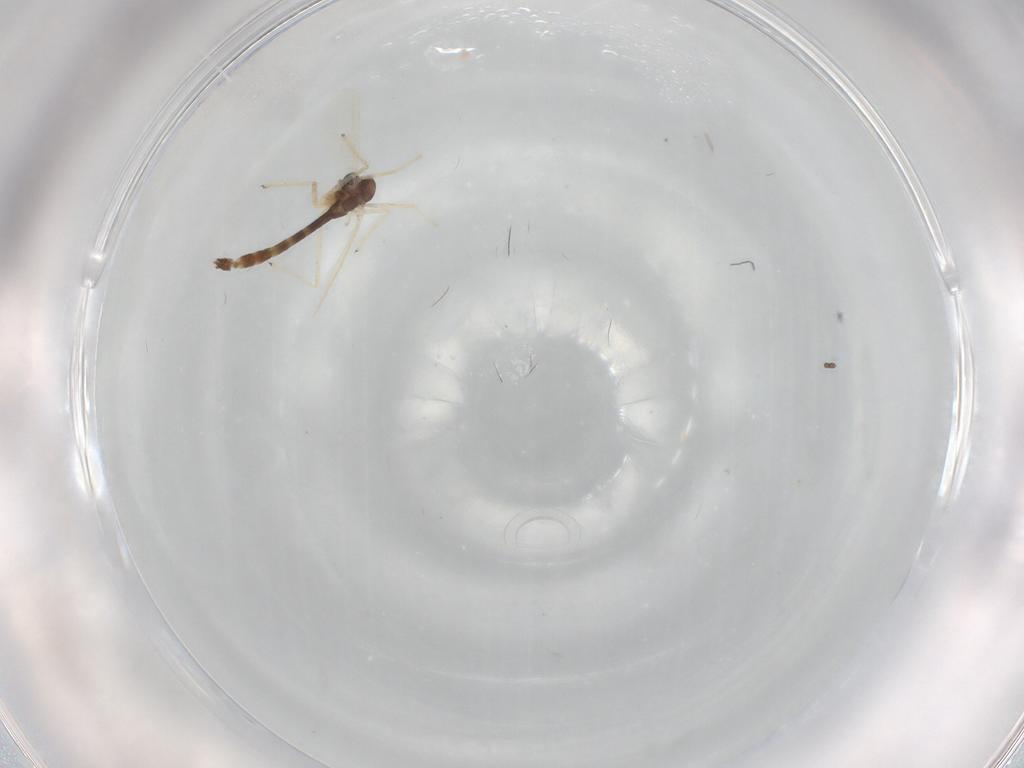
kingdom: Animalia
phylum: Arthropoda
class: Insecta
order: Diptera
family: Chironomidae
